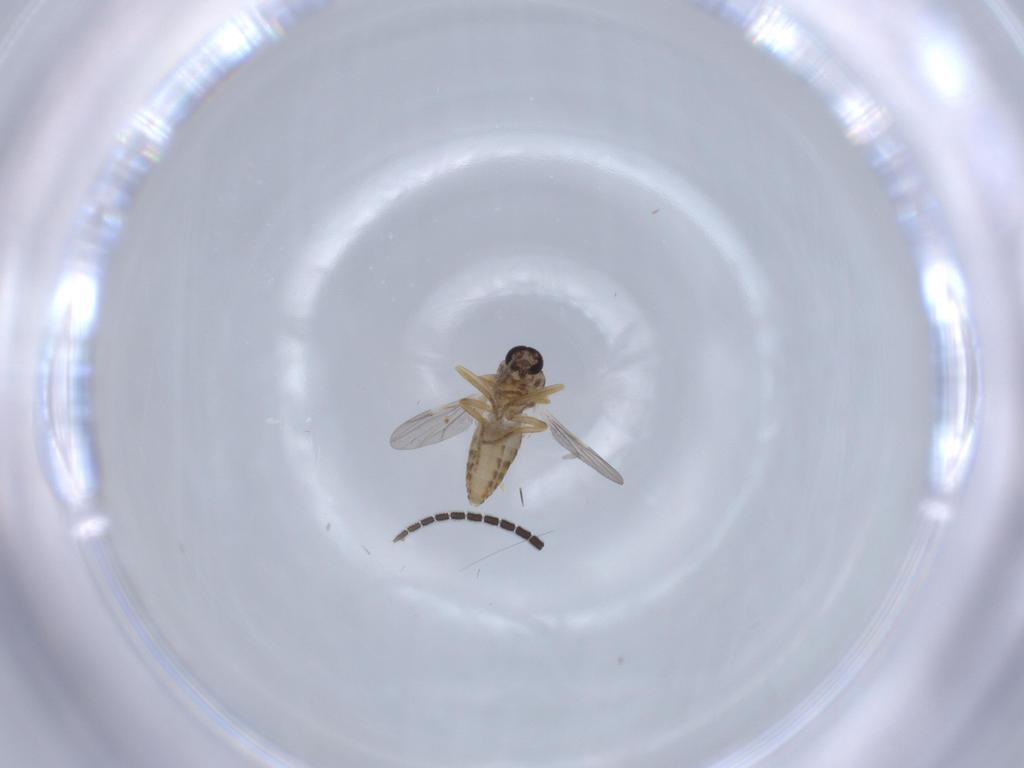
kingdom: Animalia
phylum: Arthropoda
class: Insecta
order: Diptera
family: Ceratopogonidae
